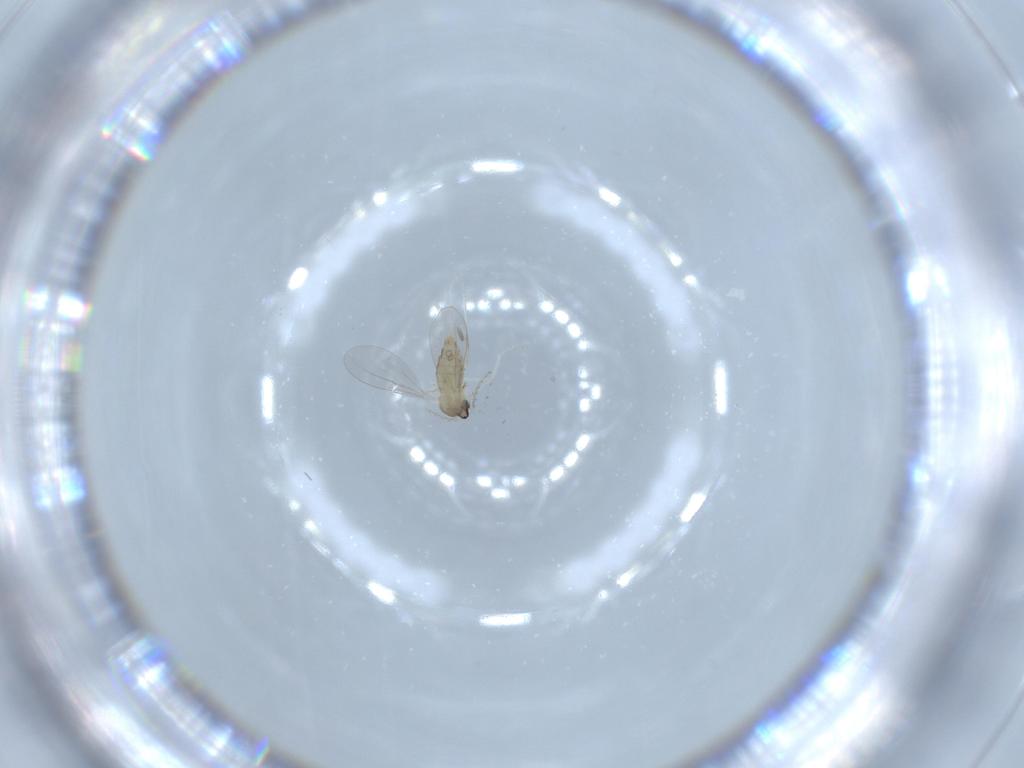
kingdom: Animalia
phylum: Arthropoda
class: Insecta
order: Diptera
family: Cecidomyiidae
